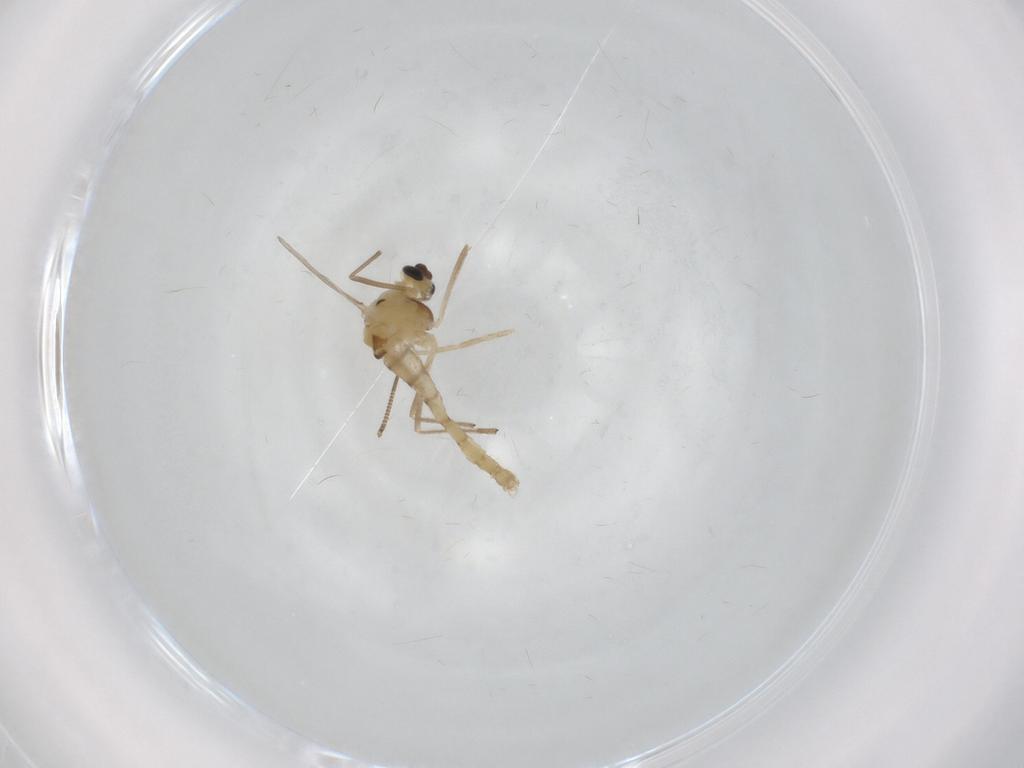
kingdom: Animalia
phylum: Arthropoda
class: Insecta
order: Diptera
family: Chironomidae
